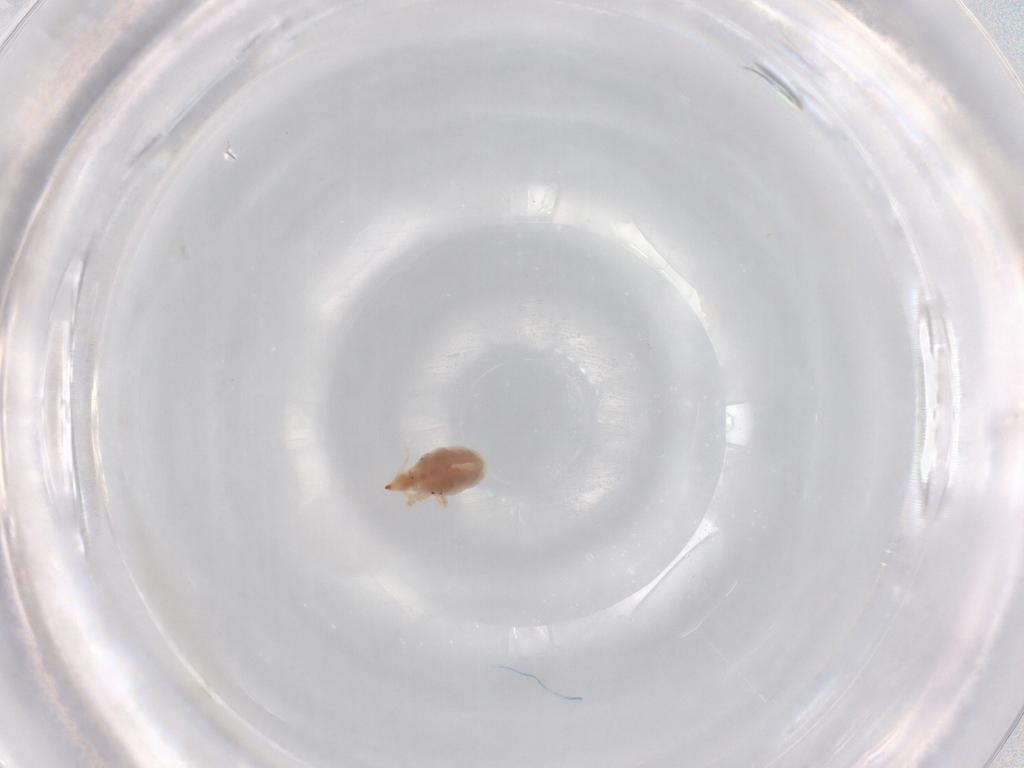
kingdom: Animalia
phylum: Arthropoda
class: Arachnida
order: Trombidiformes
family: Bdellidae
